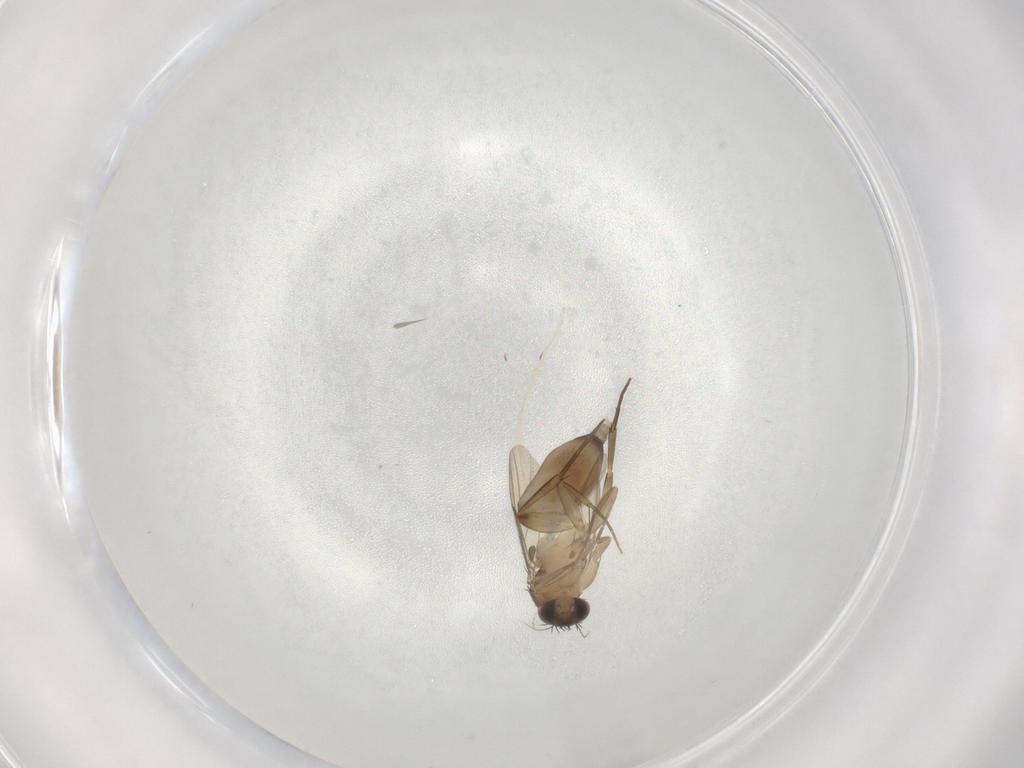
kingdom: Animalia
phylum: Arthropoda
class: Insecta
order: Diptera
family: Phoridae
